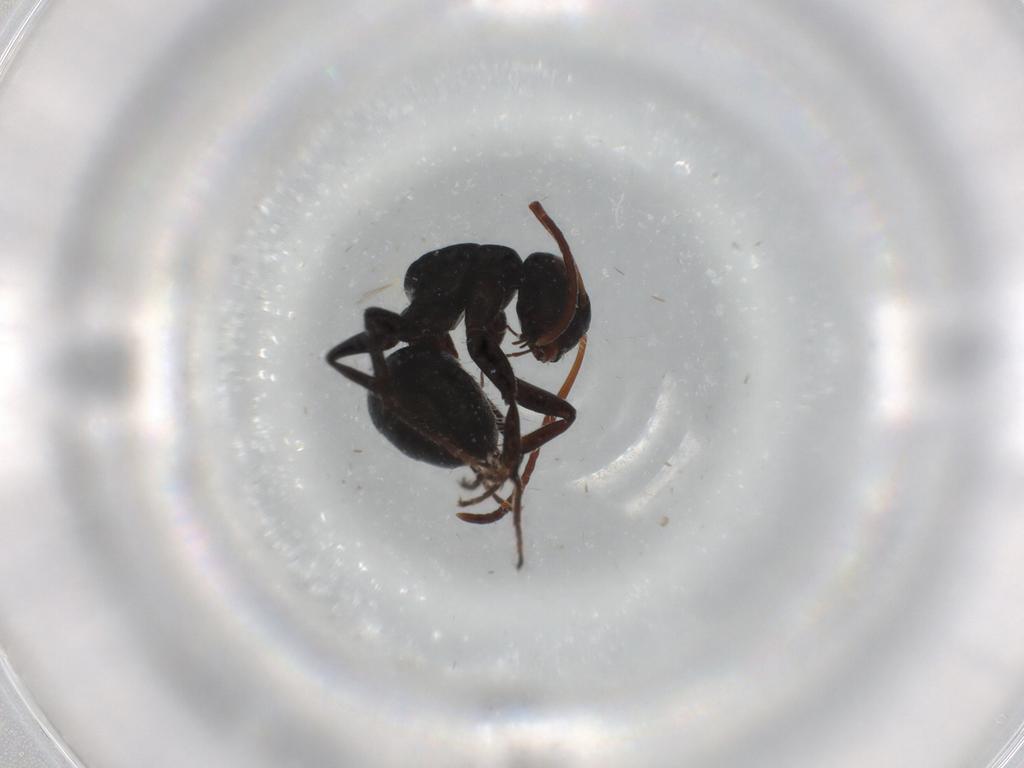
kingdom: Animalia
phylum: Arthropoda
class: Insecta
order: Hymenoptera
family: Formicidae
